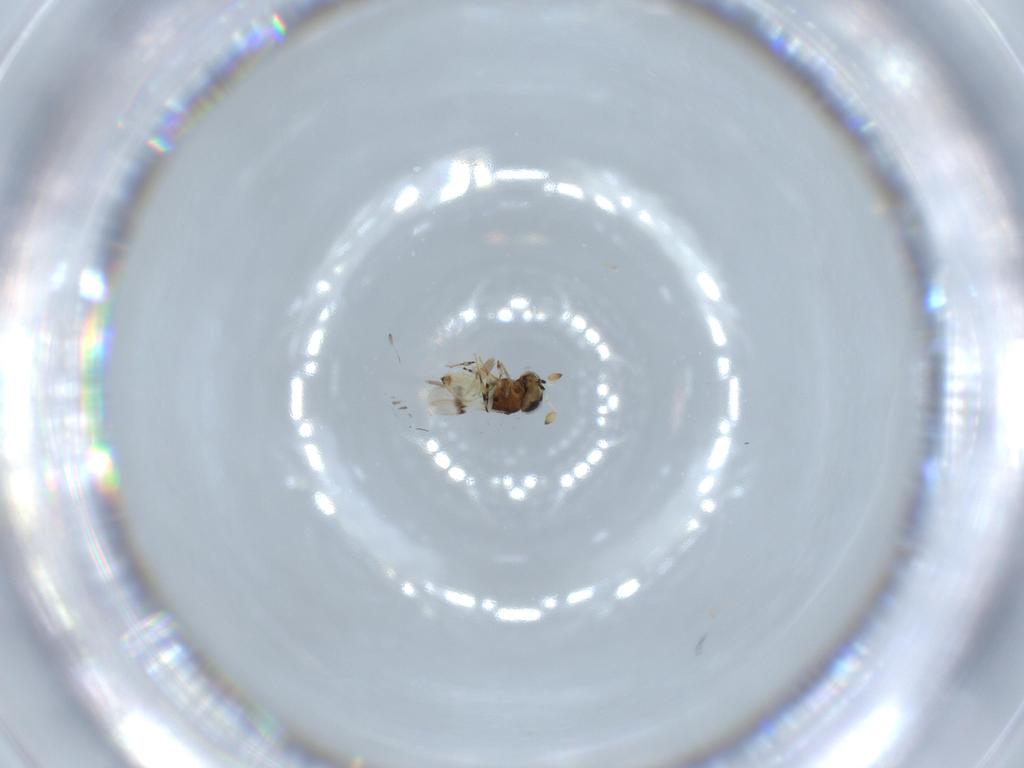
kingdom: Animalia
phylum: Arthropoda
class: Insecta
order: Hymenoptera
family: Scelionidae
